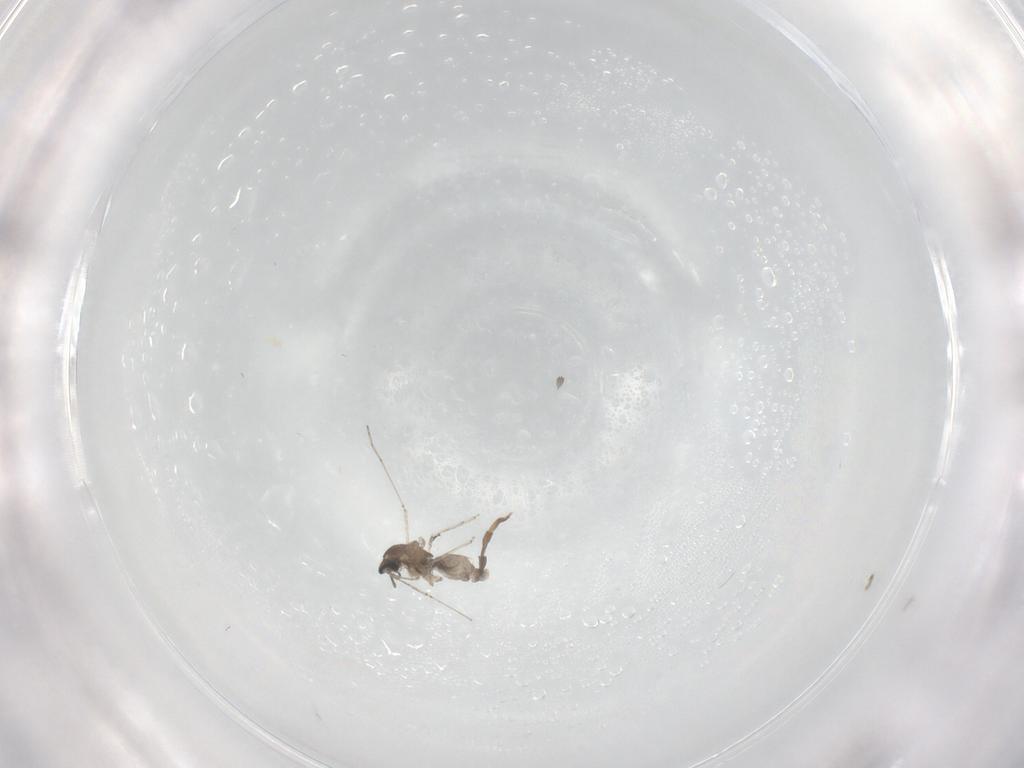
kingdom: Animalia
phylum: Arthropoda
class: Insecta
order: Diptera
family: Cecidomyiidae
